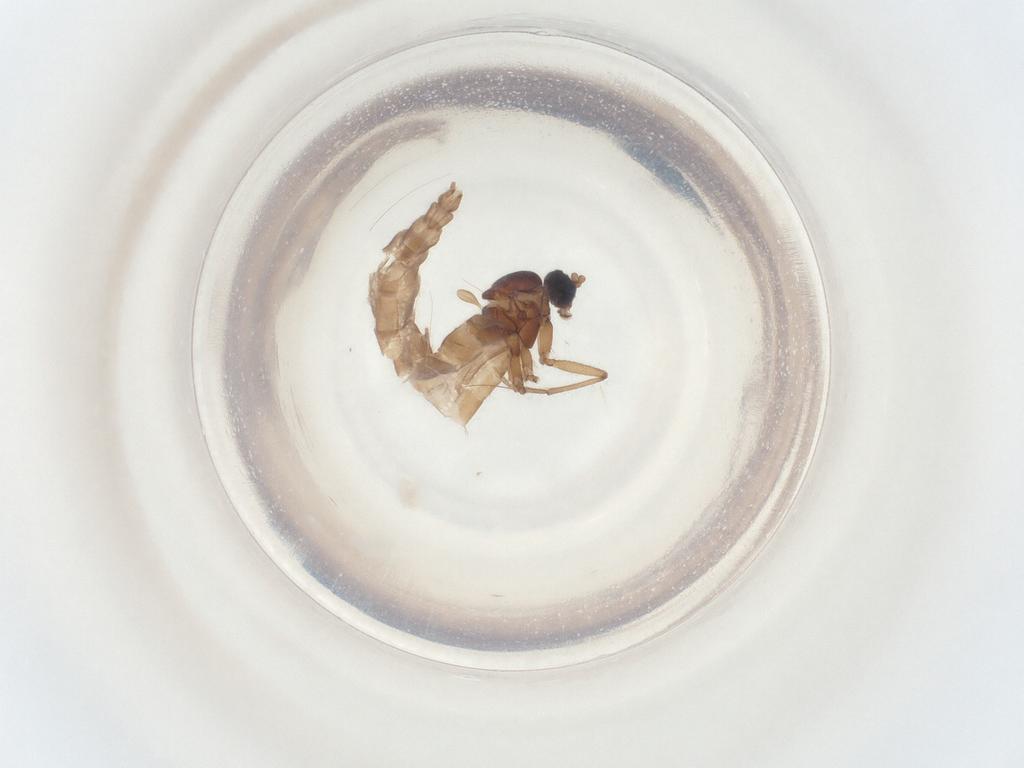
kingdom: Animalia
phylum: Arthropoda
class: Insecta
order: Diptera
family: Sciaridae
